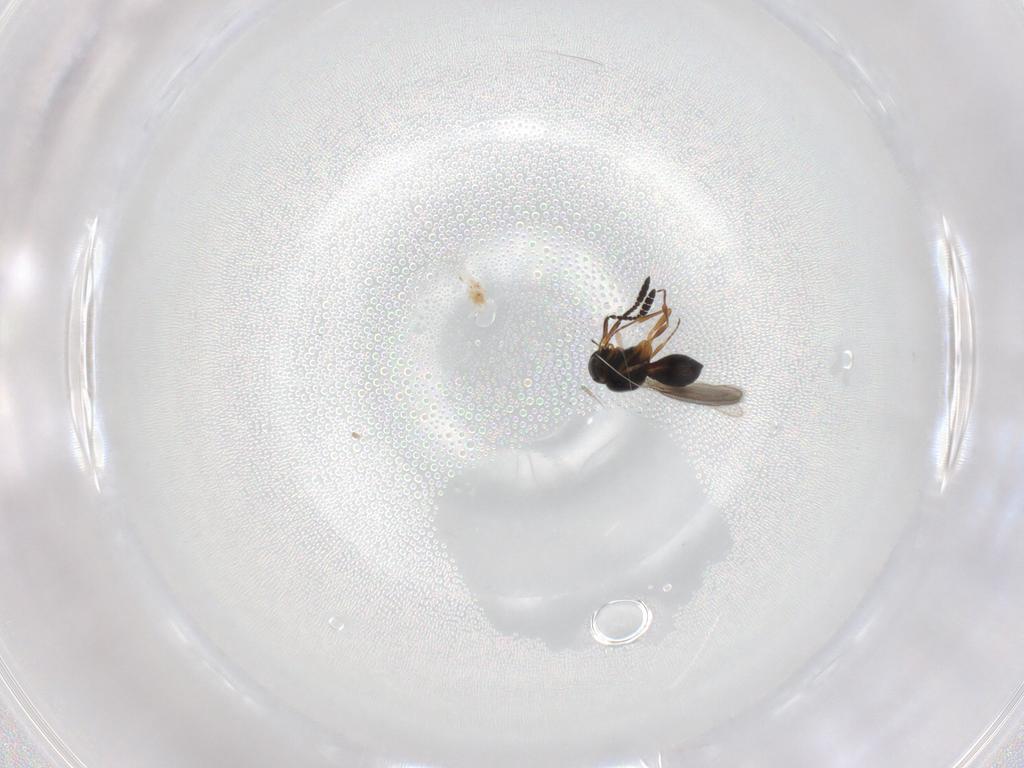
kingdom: Animalia
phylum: Arthropoda
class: Insecta
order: Hymenoptera
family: Scelionidae
